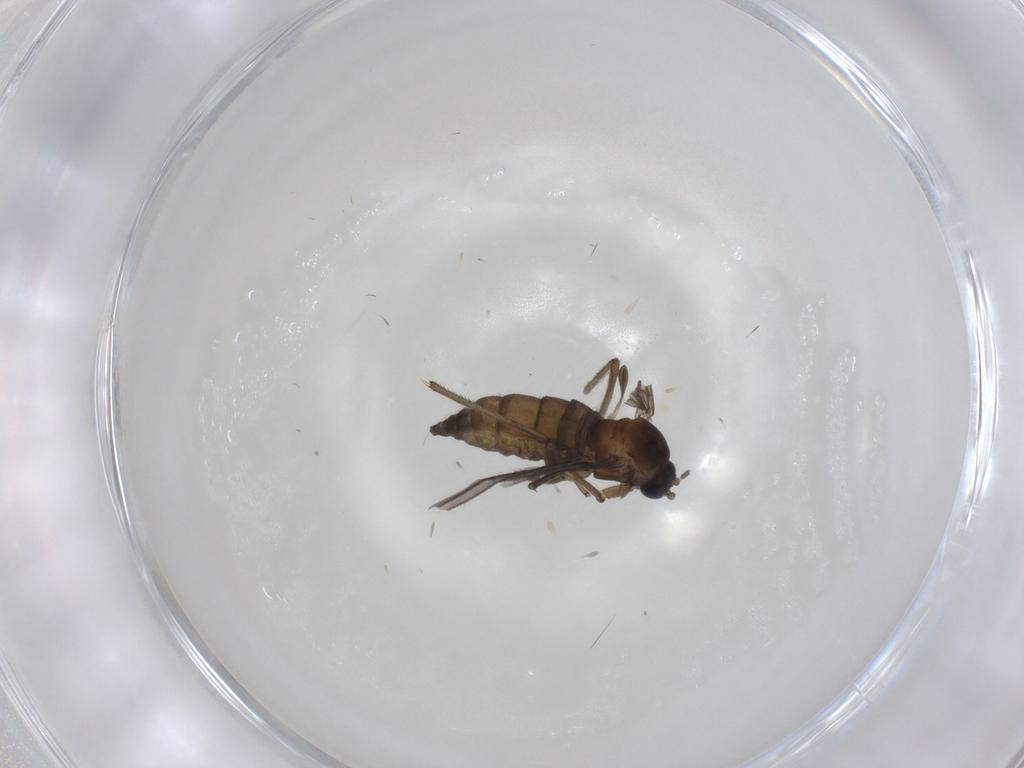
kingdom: Animalia
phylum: Arthropoda
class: Insecta
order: Diptera
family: Sciaridae
